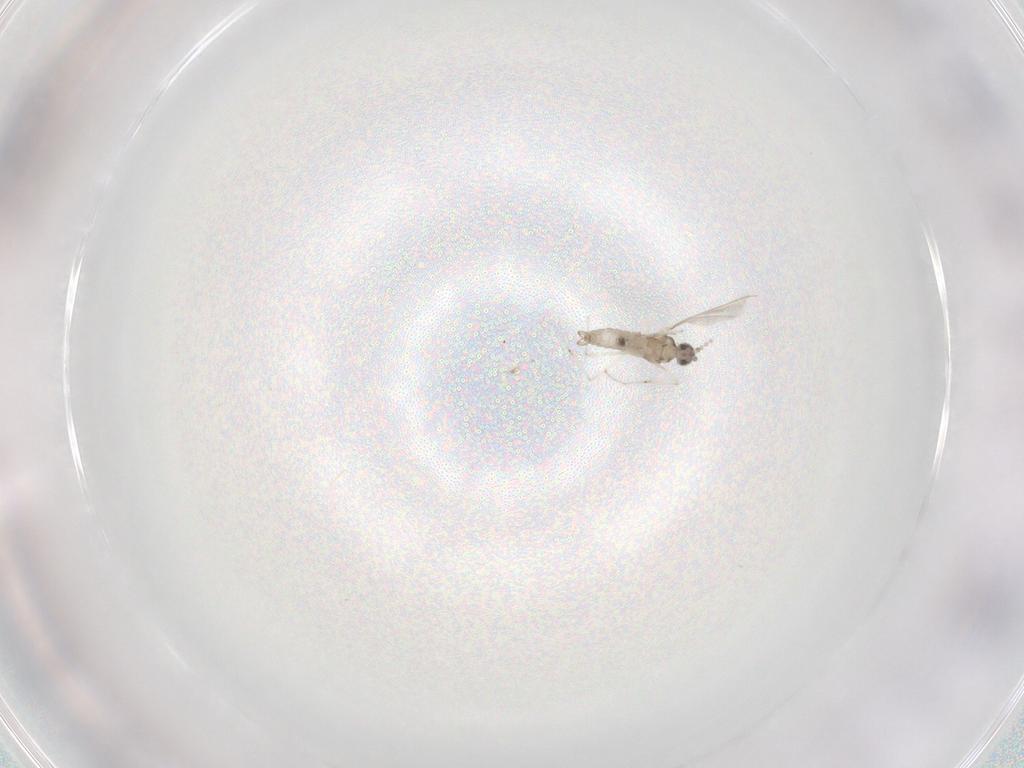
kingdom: Animalia
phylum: Arthropoda
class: Insecta
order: Diptera
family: Cecidomyiidae
